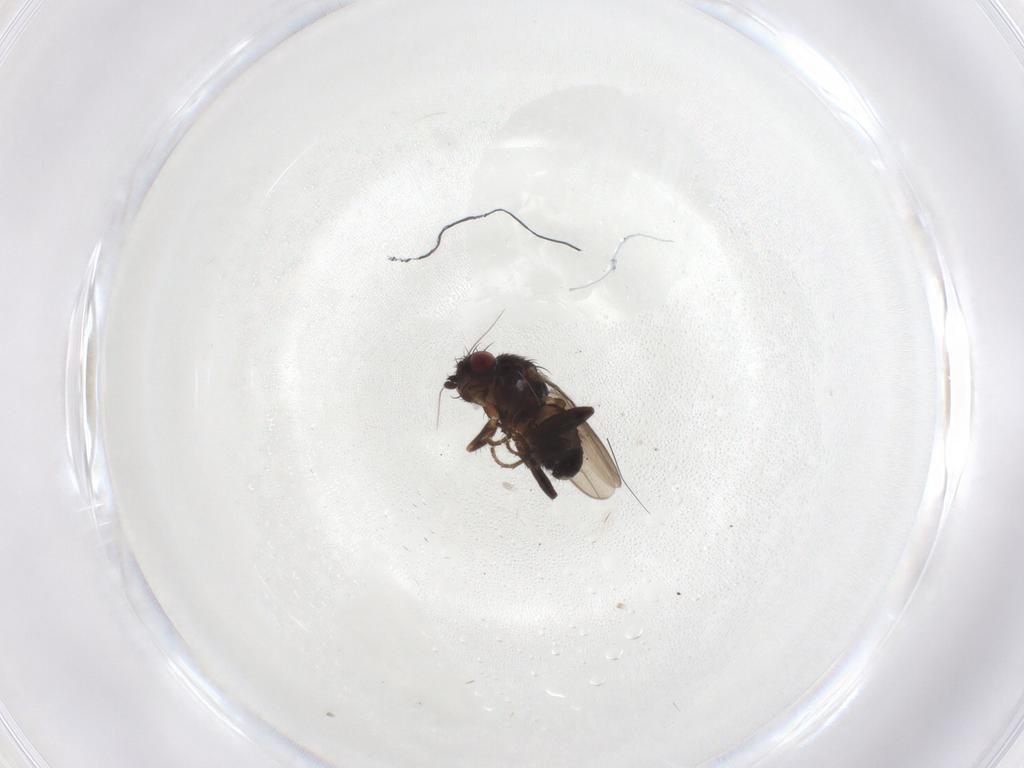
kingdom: Animalia
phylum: Arthropoda
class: Insecta
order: Diptera
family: Sphaeroceridae
